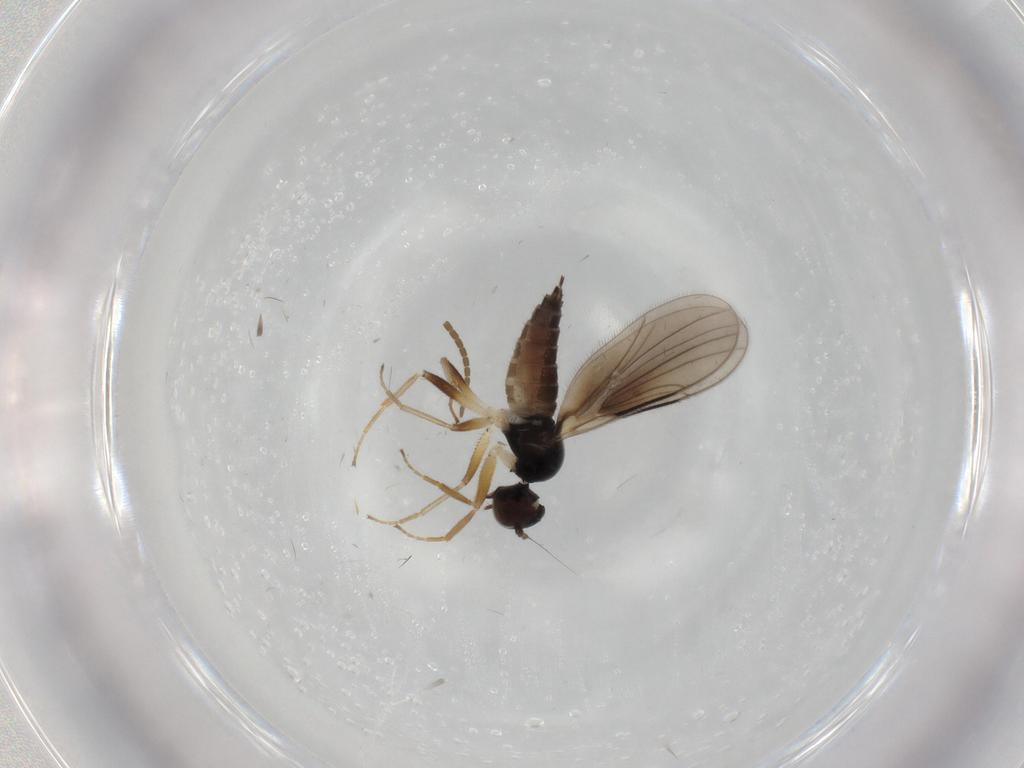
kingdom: Animalia
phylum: Arthropoda
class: Insecta
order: Diptera
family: Hybotidae
